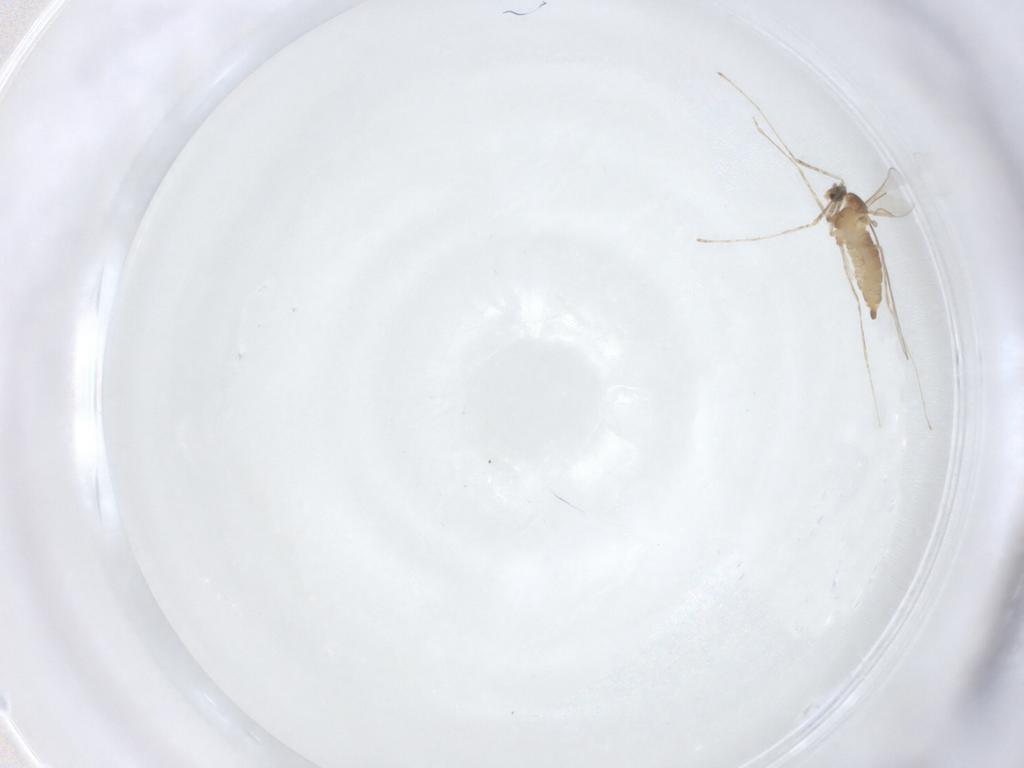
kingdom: Animalia
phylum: Arthropoda
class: Insecta
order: Diptera
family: Cecidomyiidae
